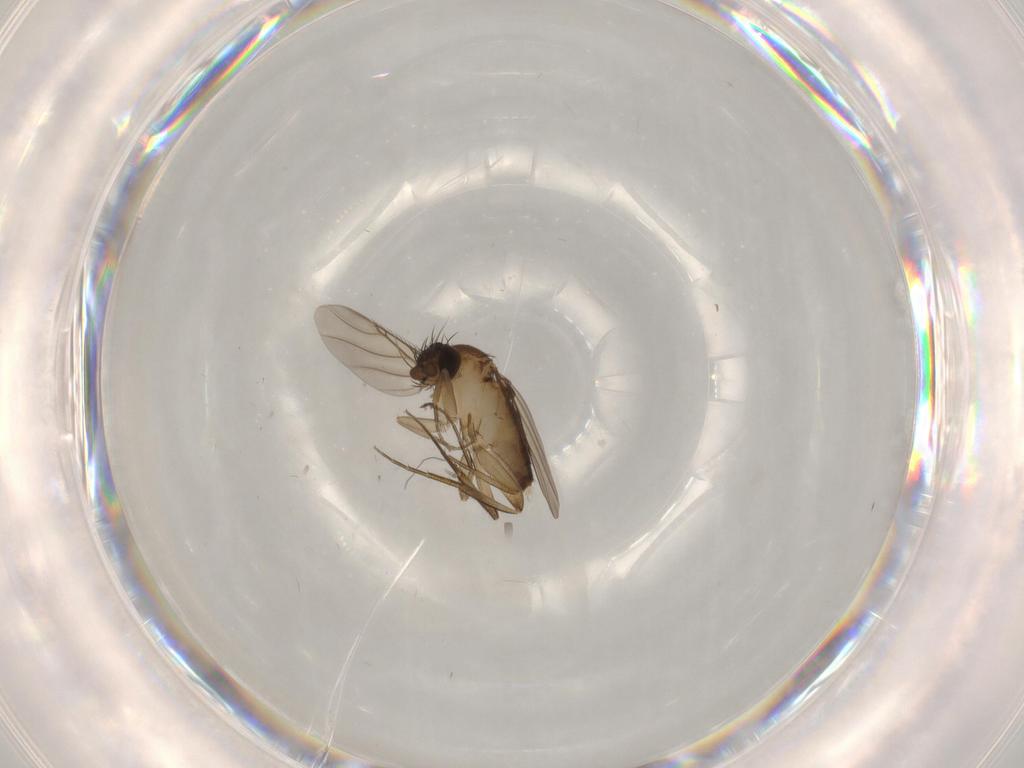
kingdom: Animalia
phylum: Arthropoda
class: Insecta
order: Diptera
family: Phoridae
